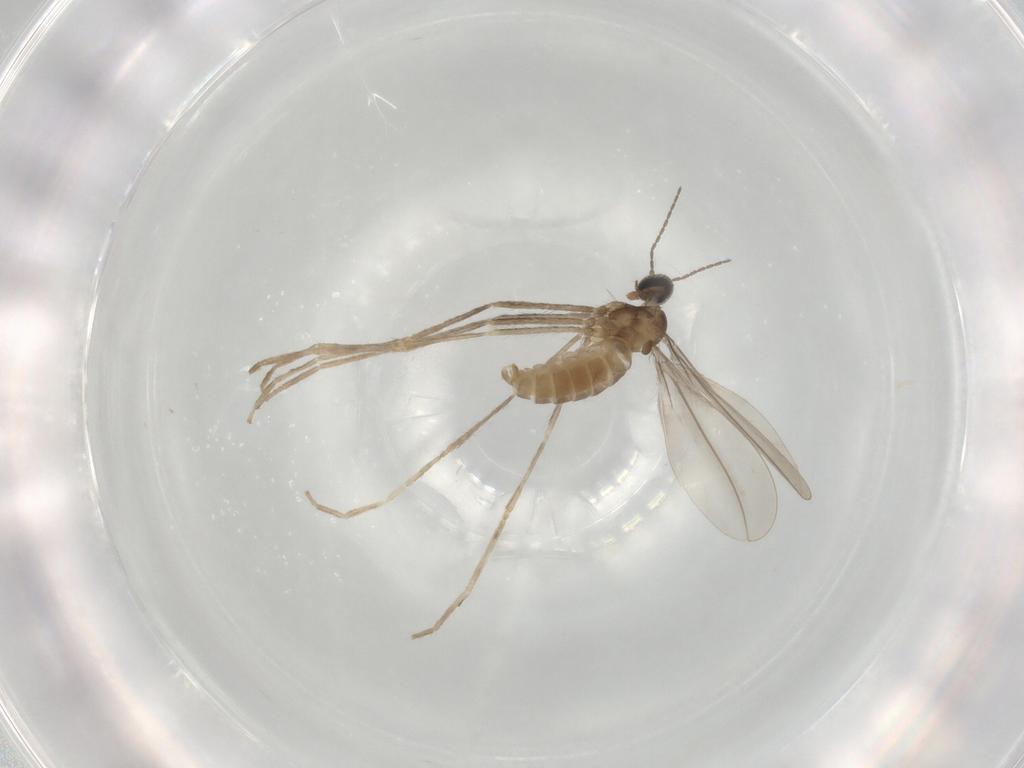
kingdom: Animalia
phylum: Arthropoda
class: Insecta
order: Diptera
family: Cecidomyiidae
